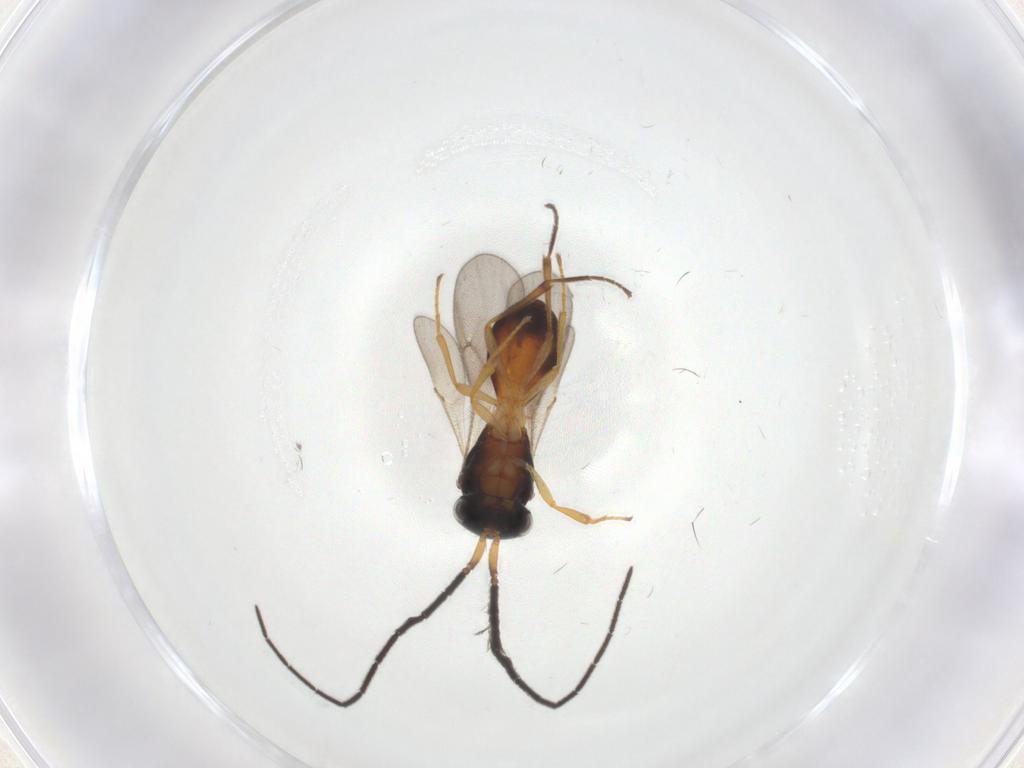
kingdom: Animalia
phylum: Arthropoda
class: Insecta
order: Hymenoptera
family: Scelionidae
